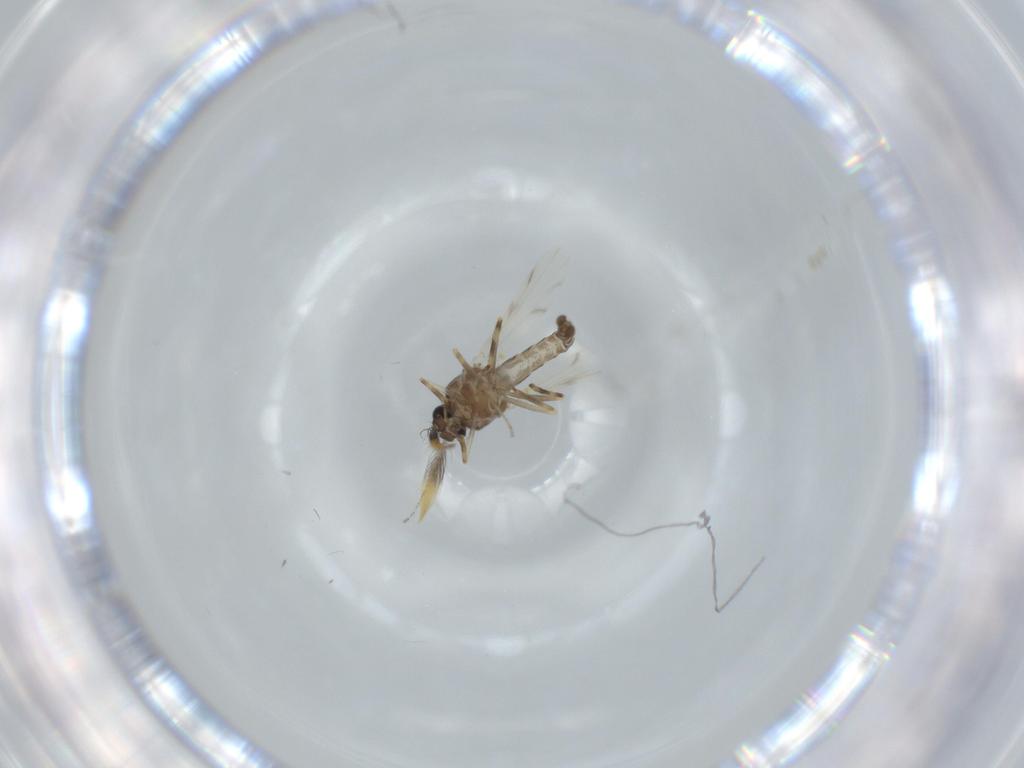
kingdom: Animalia
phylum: Arthropoda
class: Insecta
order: Diptera
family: Ceratopogonidae
